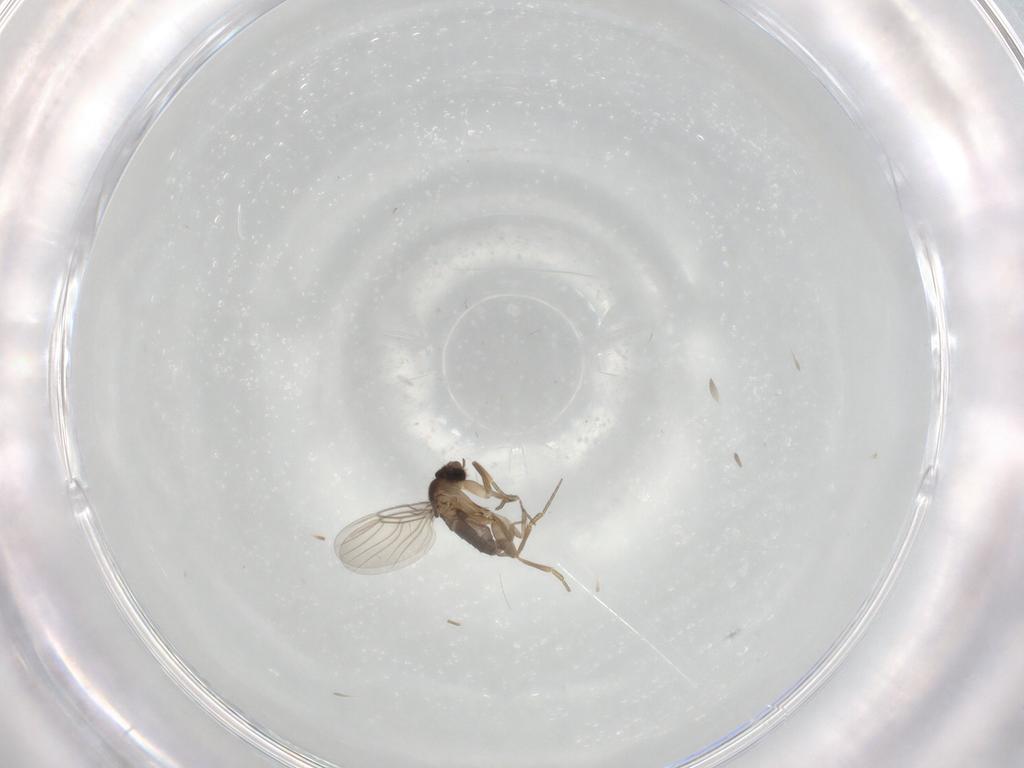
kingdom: Animalia
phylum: Arthropoda
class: Insecta
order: Diptera
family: Phoridae
